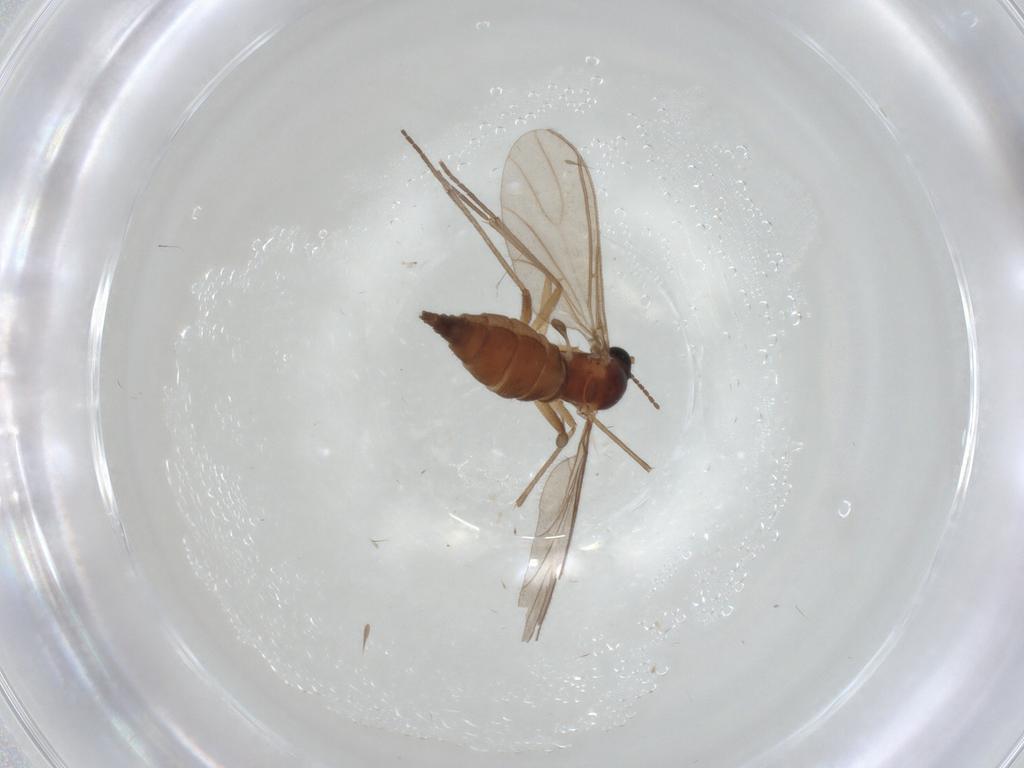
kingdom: Animalia
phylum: Arthropoda
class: Insecta
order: Diptera
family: Sciaridae
